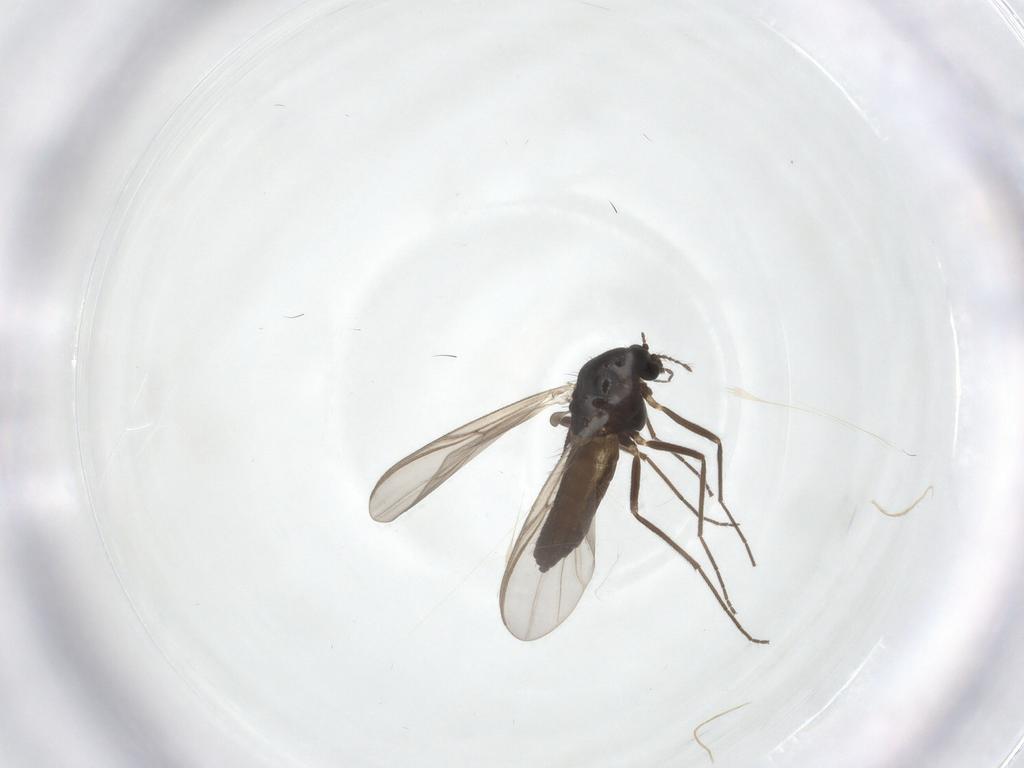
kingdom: Animalia
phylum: Arthropoda
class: Insecta
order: Diptera
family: Chironomidae
